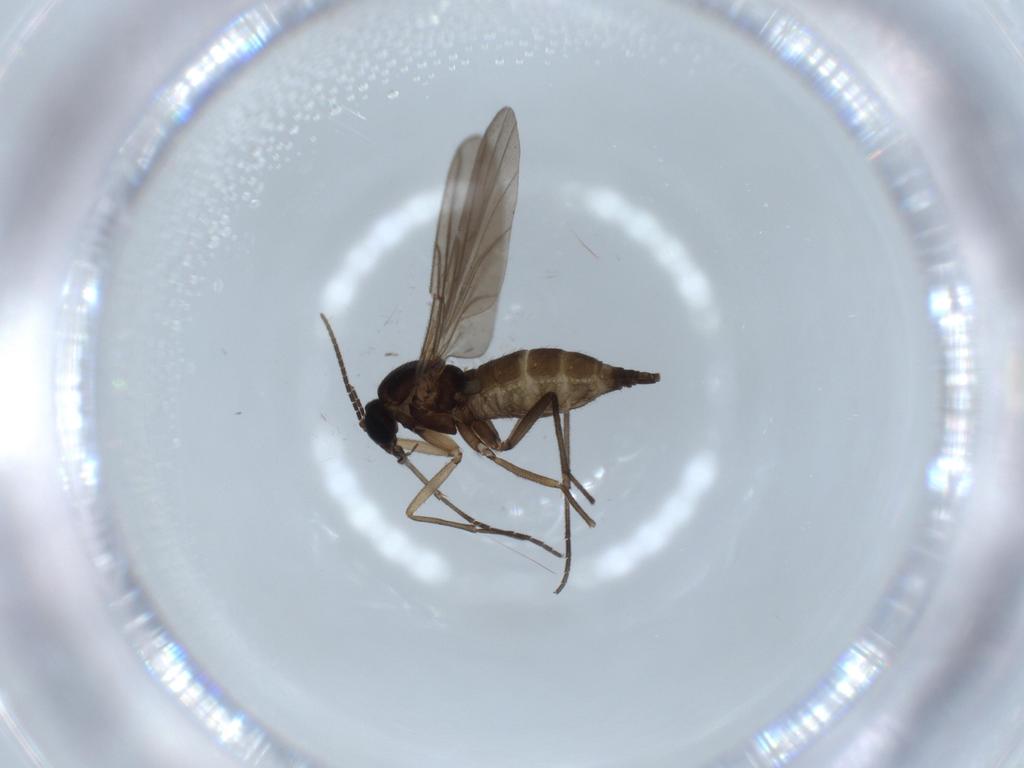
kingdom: Animalia
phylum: Arthropoda
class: Insecta
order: Diptera
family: Sciaridae
